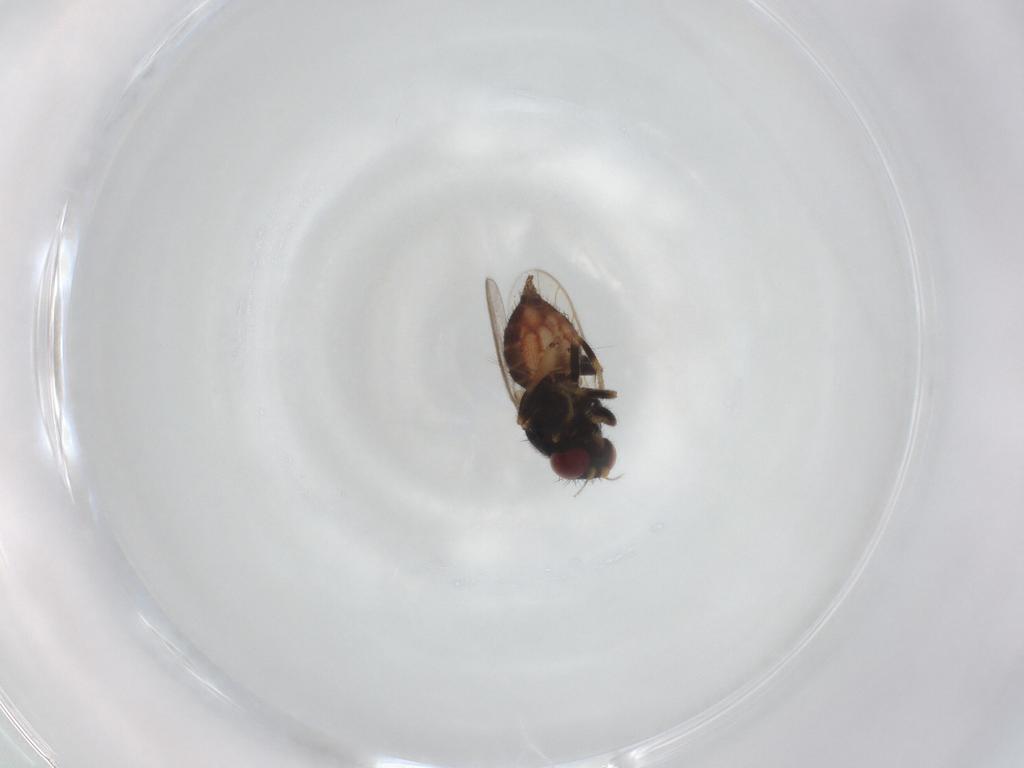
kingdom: Animalia
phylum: Arthropoda
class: Insecta
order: Diptera
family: Chloropidae
